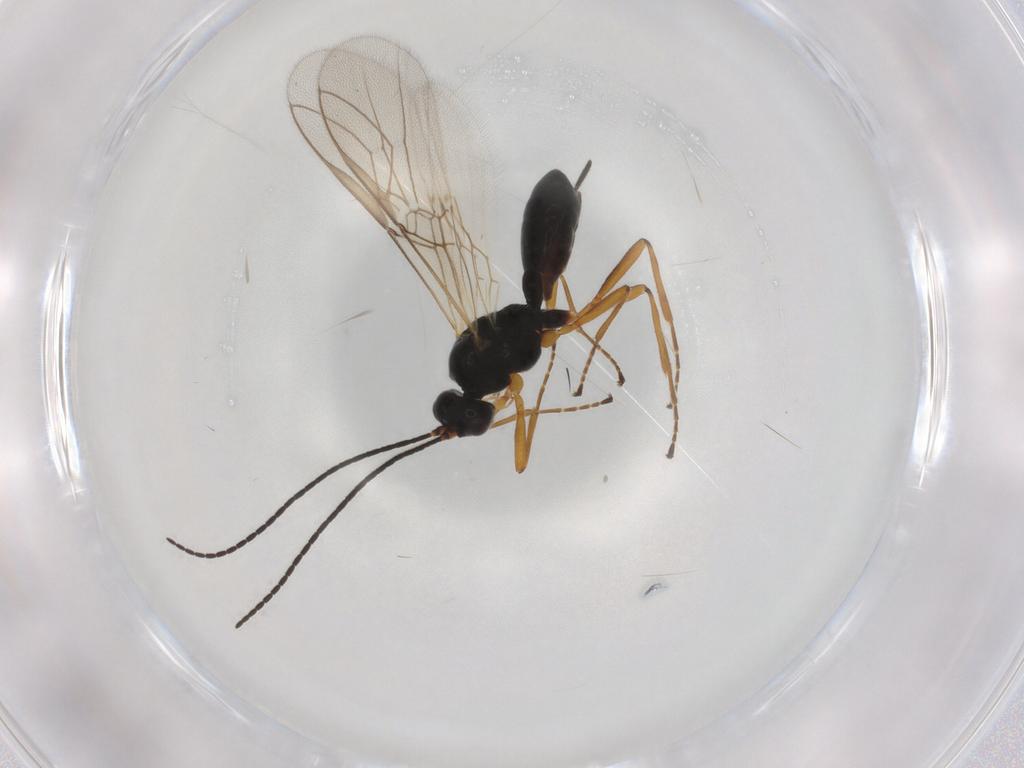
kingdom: Animalia
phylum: Arthropoda
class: Insecta
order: Hymenoptera
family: Braconidae
